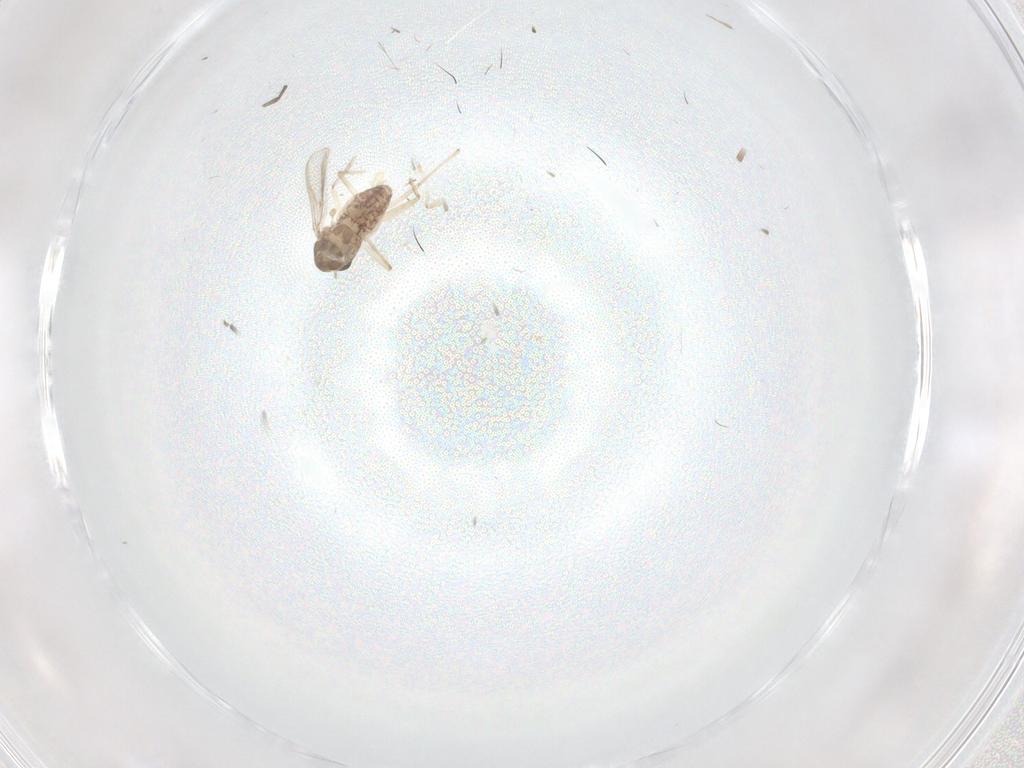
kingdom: Animalia
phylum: Arthropoda
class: Insecta
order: Diptera
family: Chironomidae
